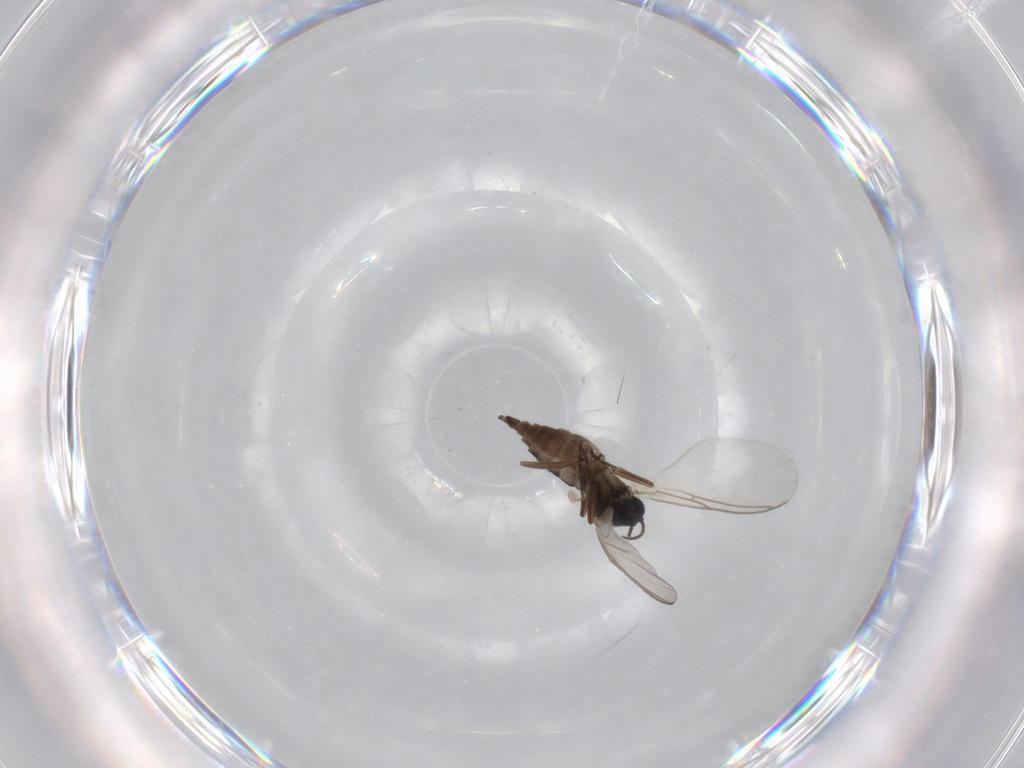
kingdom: Animalia
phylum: Arthropoda
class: Insecta
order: Diptera
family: Sciaridae
